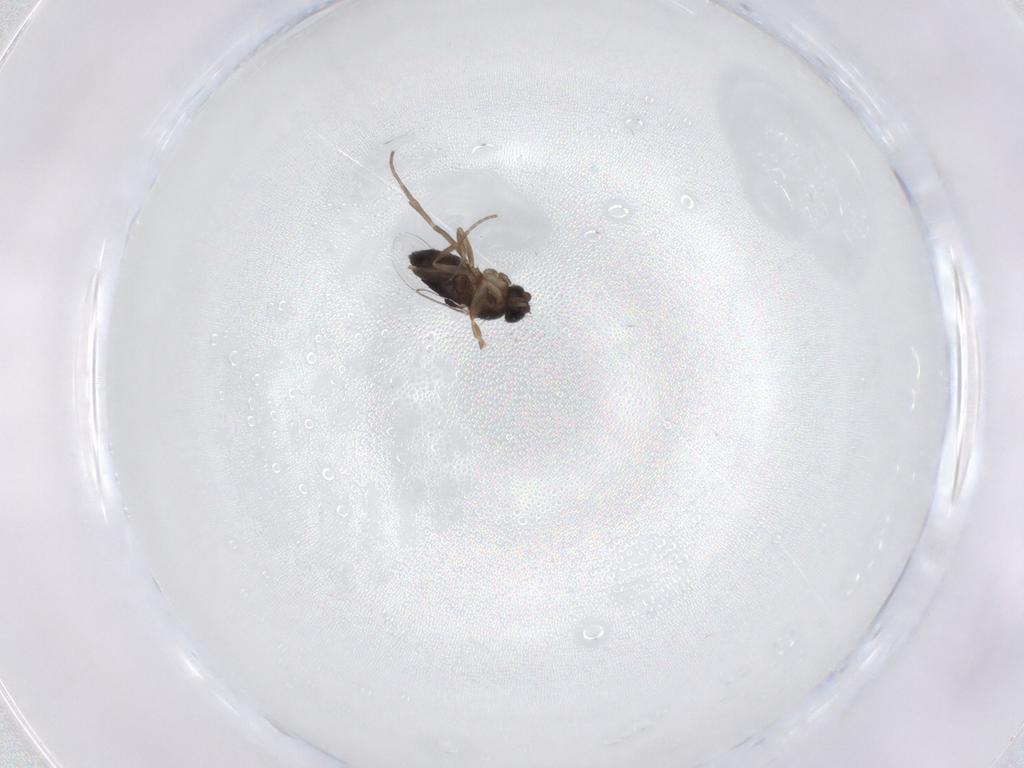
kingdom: Animalia
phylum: Arthropoda
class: Insecta
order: Diptera
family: Phoridae
